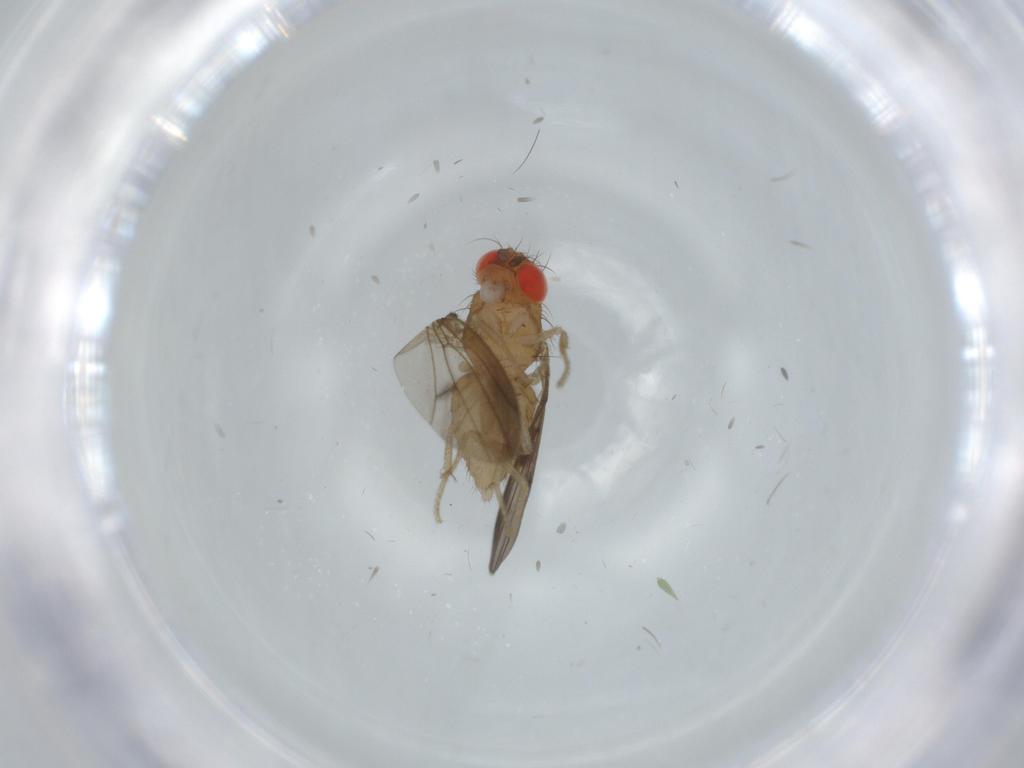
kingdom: Animalia
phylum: Arthropoda
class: Insecta
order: Diptera
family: Drosophilidae
